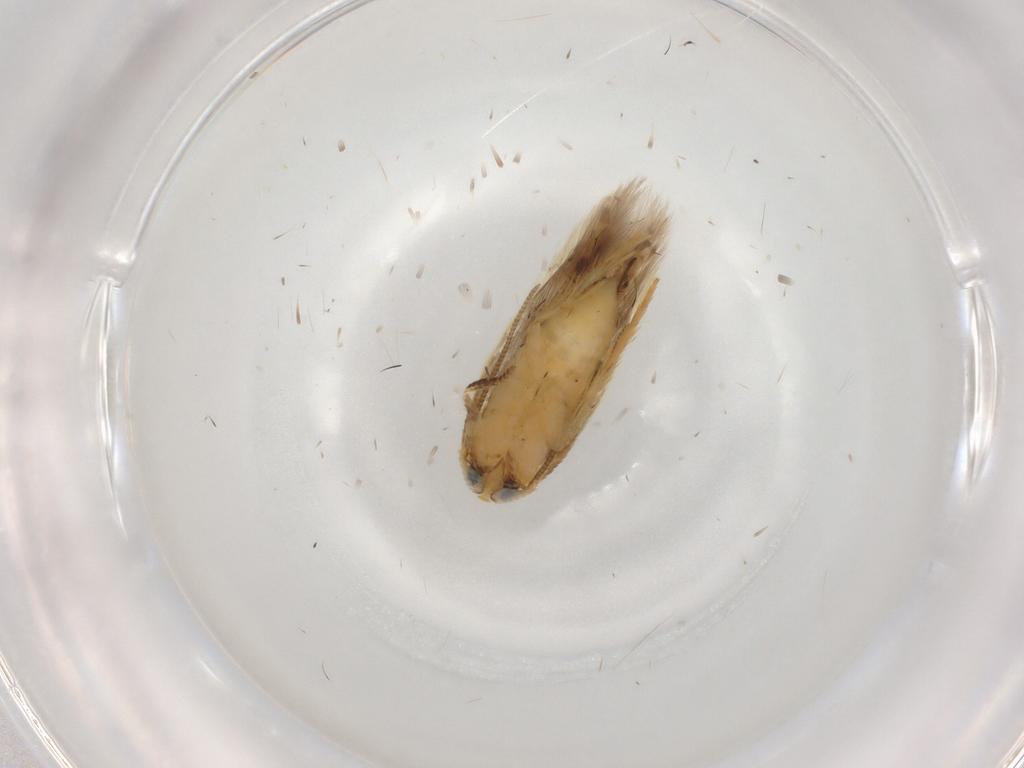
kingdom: Animalia
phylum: Arthropoda
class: Insecta
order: Lepidoptera
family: Opostegidae
